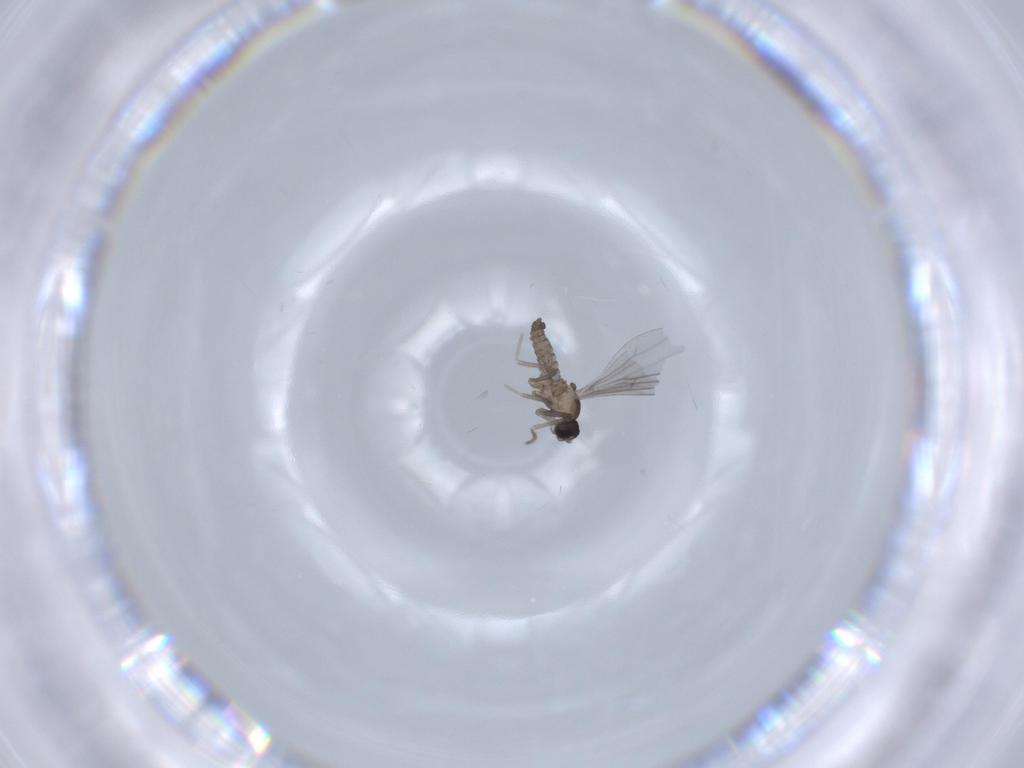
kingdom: Animalia
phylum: Arthropoda
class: Insecta
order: Diptera
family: Cecidomyiidae
